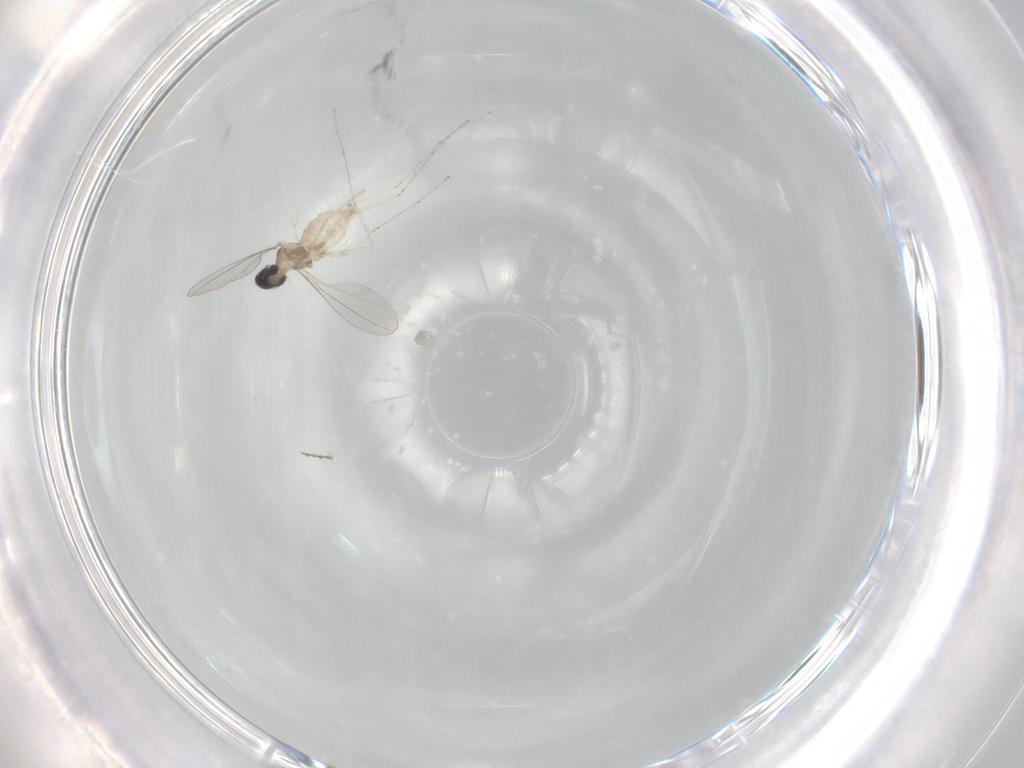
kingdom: Animalia
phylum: Arthropoda
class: Insecta
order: Diptera
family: Cecidomyiidae
